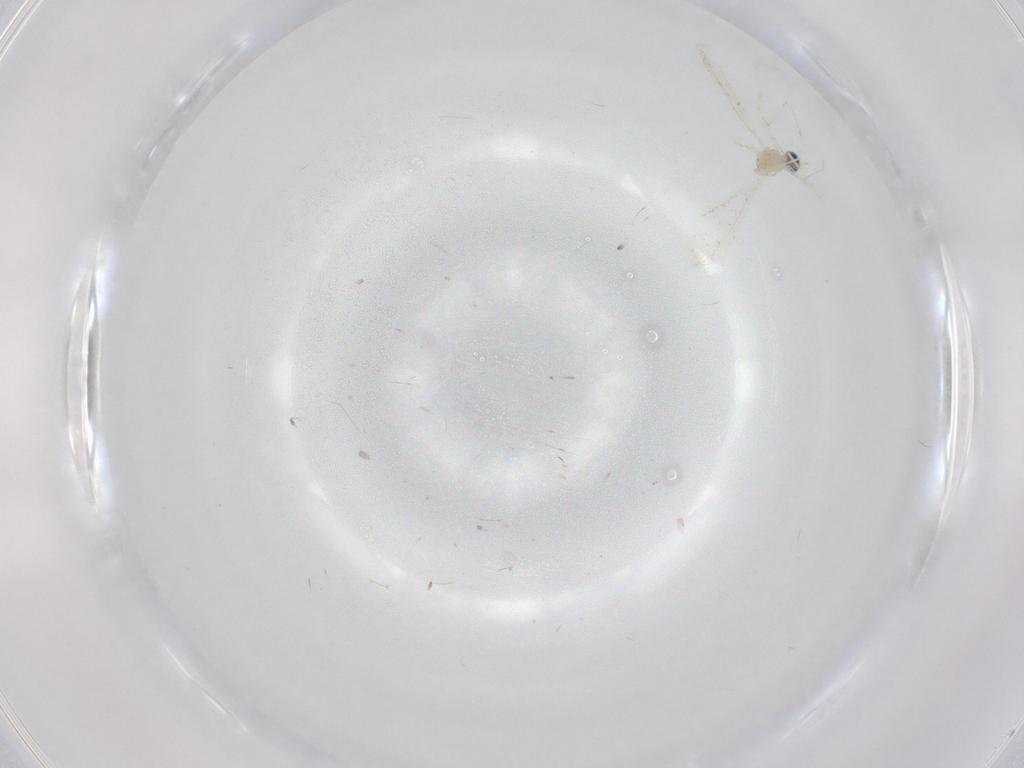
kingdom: Animalia
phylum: Arthropoda
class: Insecta
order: Diptera
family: Cecidomyiidae
